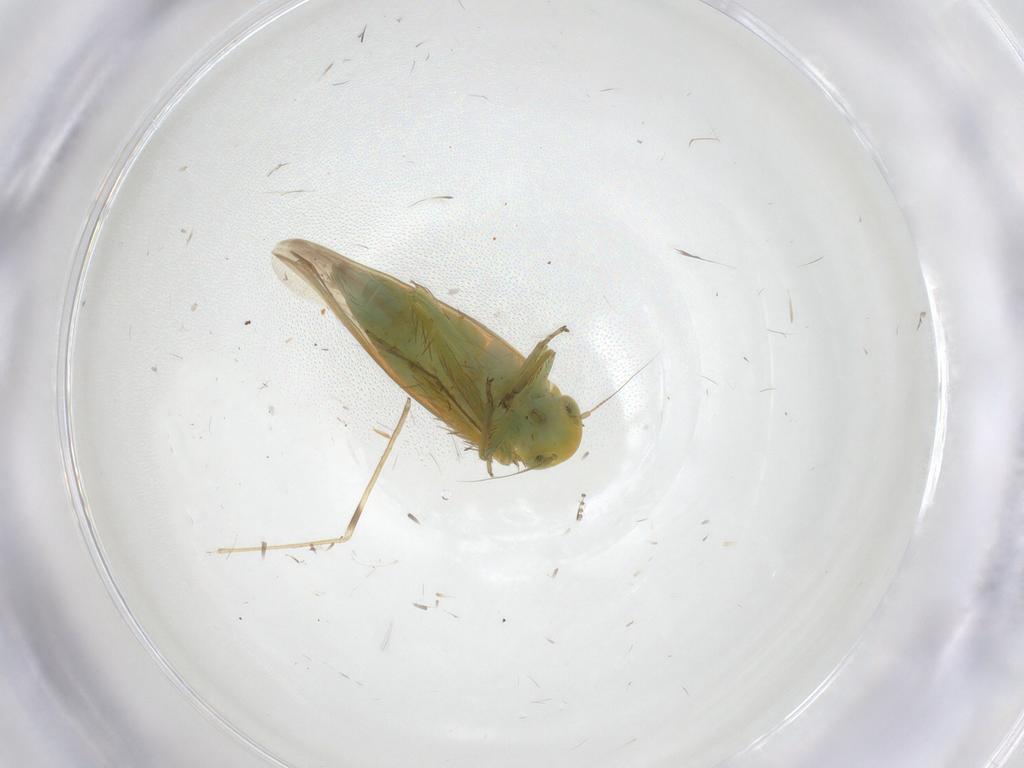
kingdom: Animalia
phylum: Arthropoda
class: Insecta
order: Hemiptera
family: Cicadellidae
